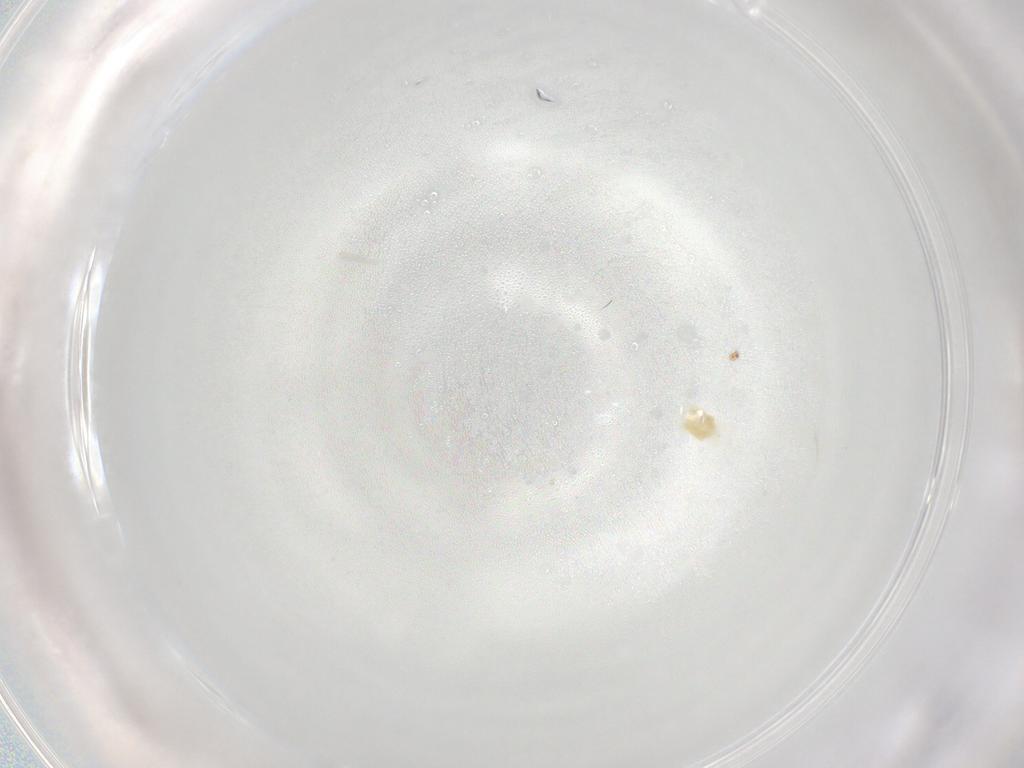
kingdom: Animalia
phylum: Arthropoda
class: Arachnida
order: Trombidiformes
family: Eupodidae
